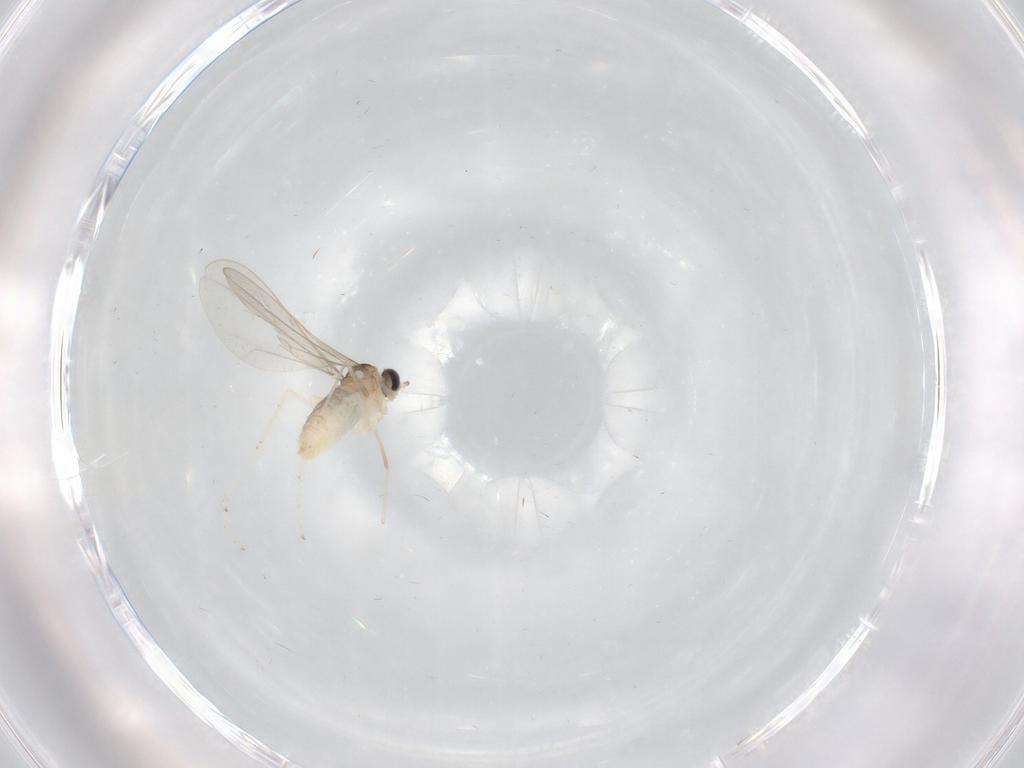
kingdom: Animalia
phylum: Arthropoda
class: Insecta
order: Diptera
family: Cecidomyiidae
